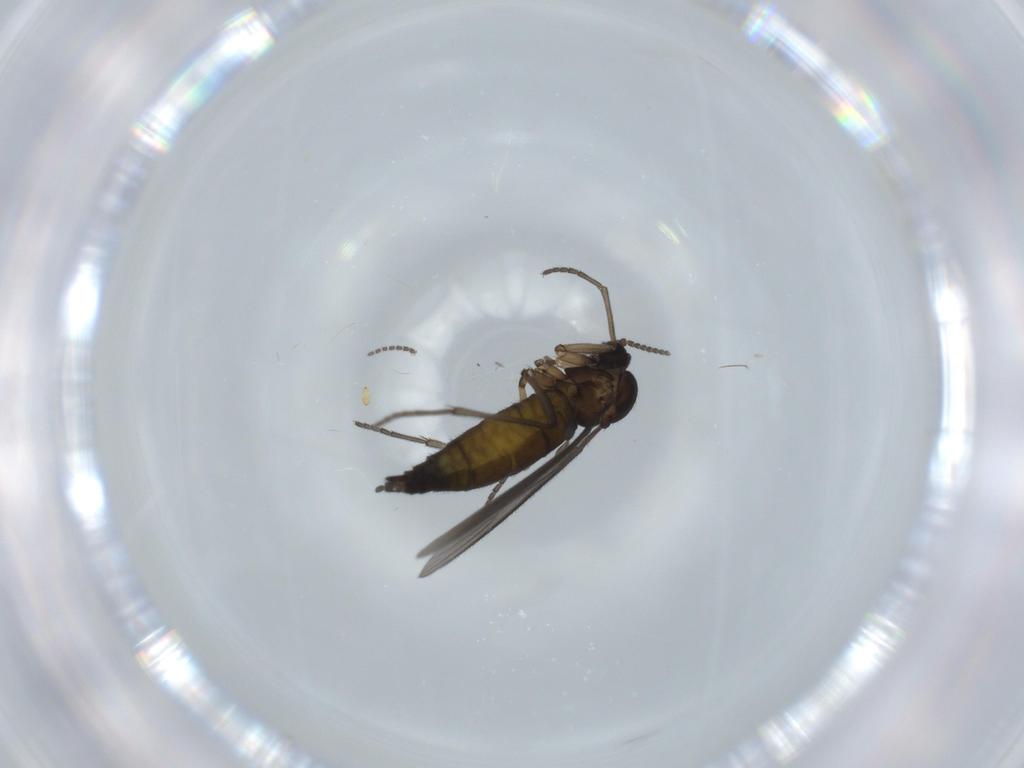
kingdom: Animalia
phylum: Arthropoda
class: Insecta
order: Diptera
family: Sciaridae
